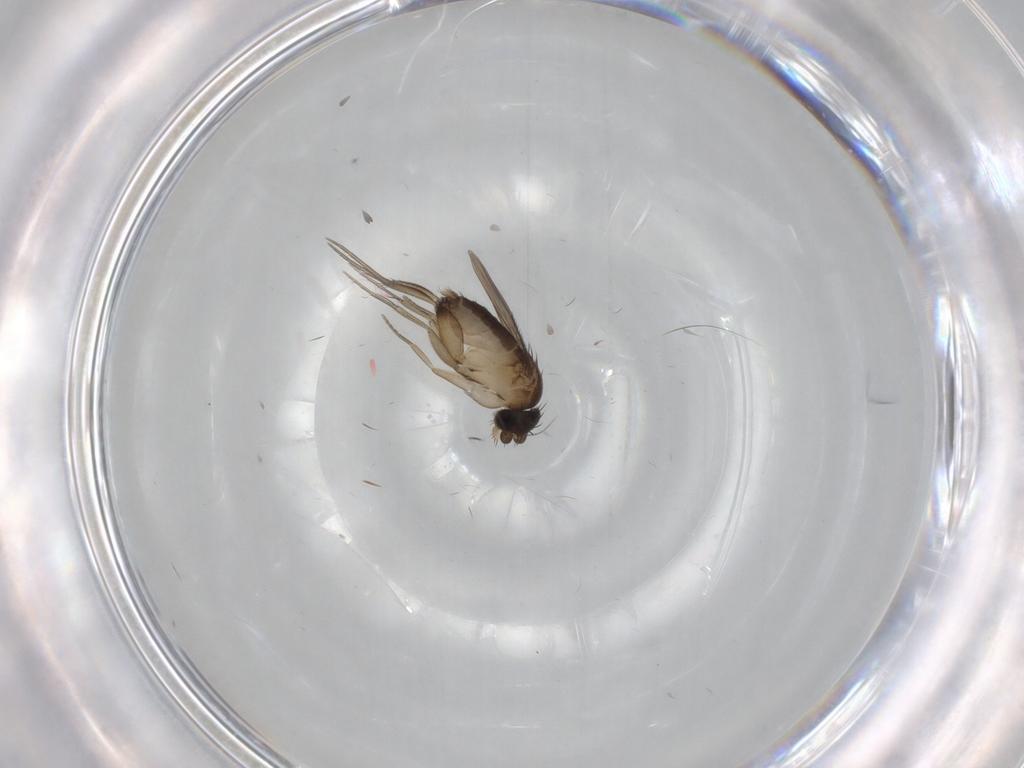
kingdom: Animalia
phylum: Arthropoda
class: Insecta
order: Diptera
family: Phoridae
